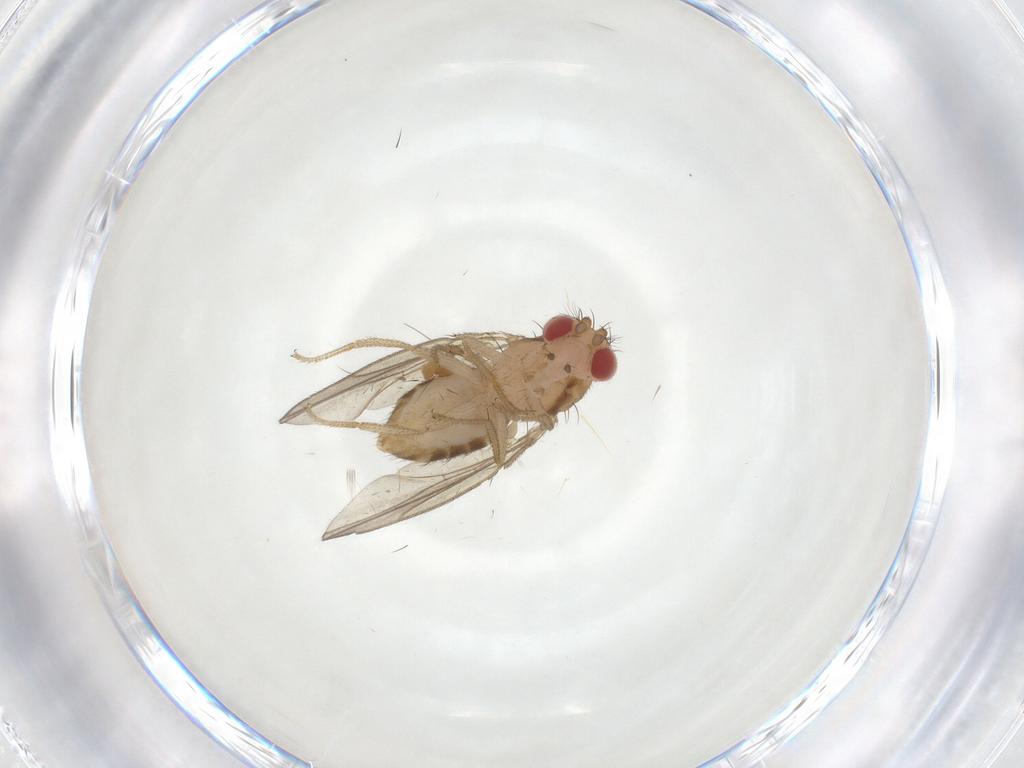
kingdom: Animalia
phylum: Arthropoda
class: Insecta
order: Diptera
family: Drosophilidae
